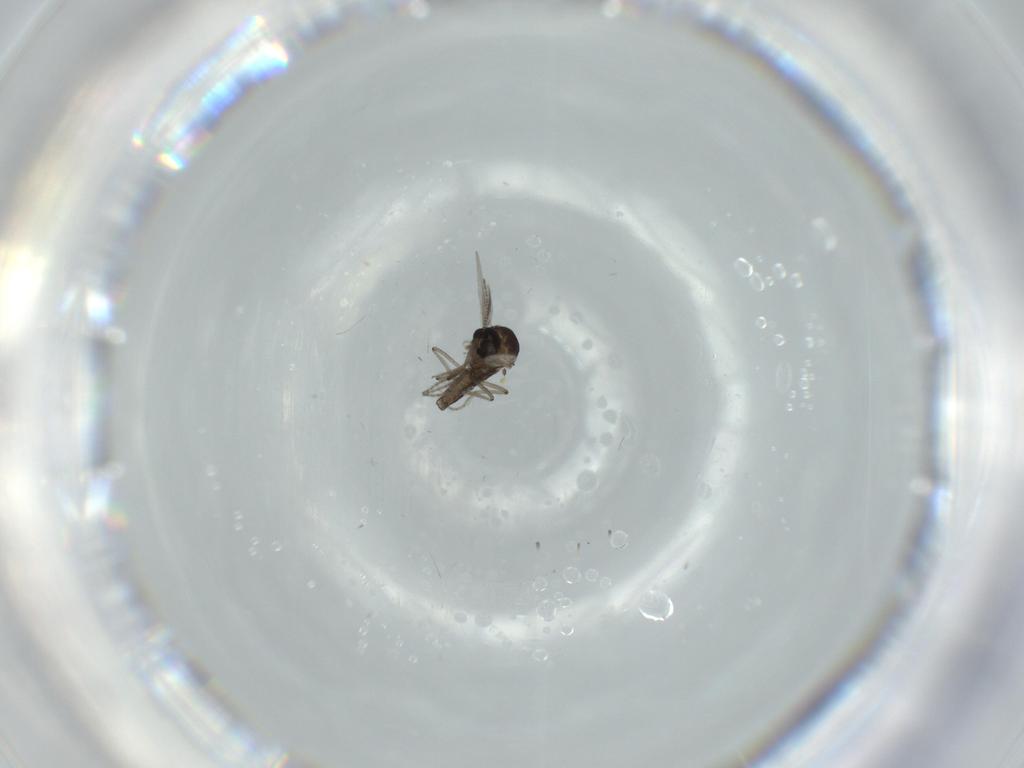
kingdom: Animalia
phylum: Arthropoda
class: Insecta
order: Diptera
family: Ceratopogonidae
